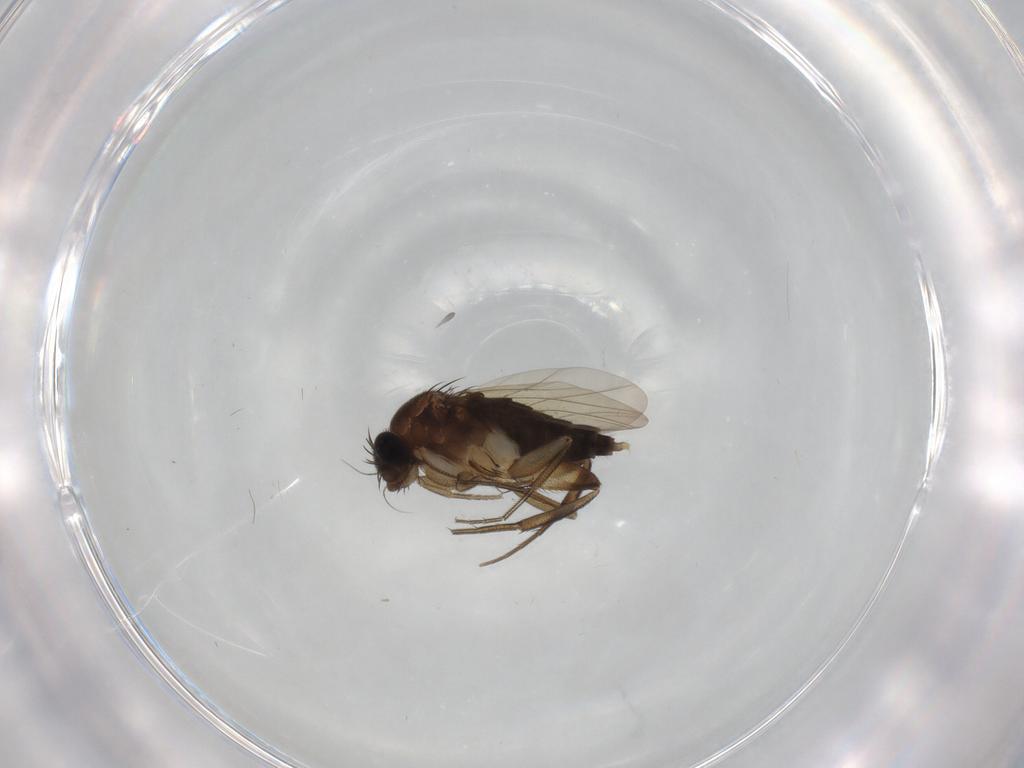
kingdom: Animalia
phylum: Arthropoda
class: Insecta
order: Diptera
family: Phoridae
